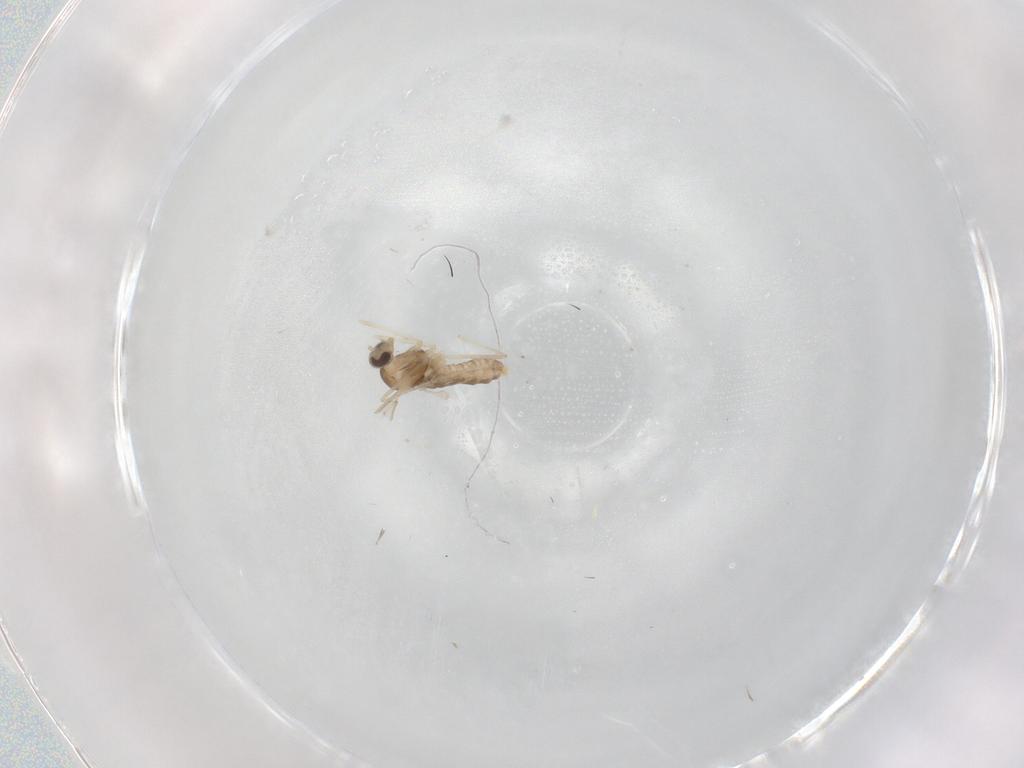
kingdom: Animalia
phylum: Arthropoda
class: Insecta
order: Diptera
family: Cecidomyiidae
